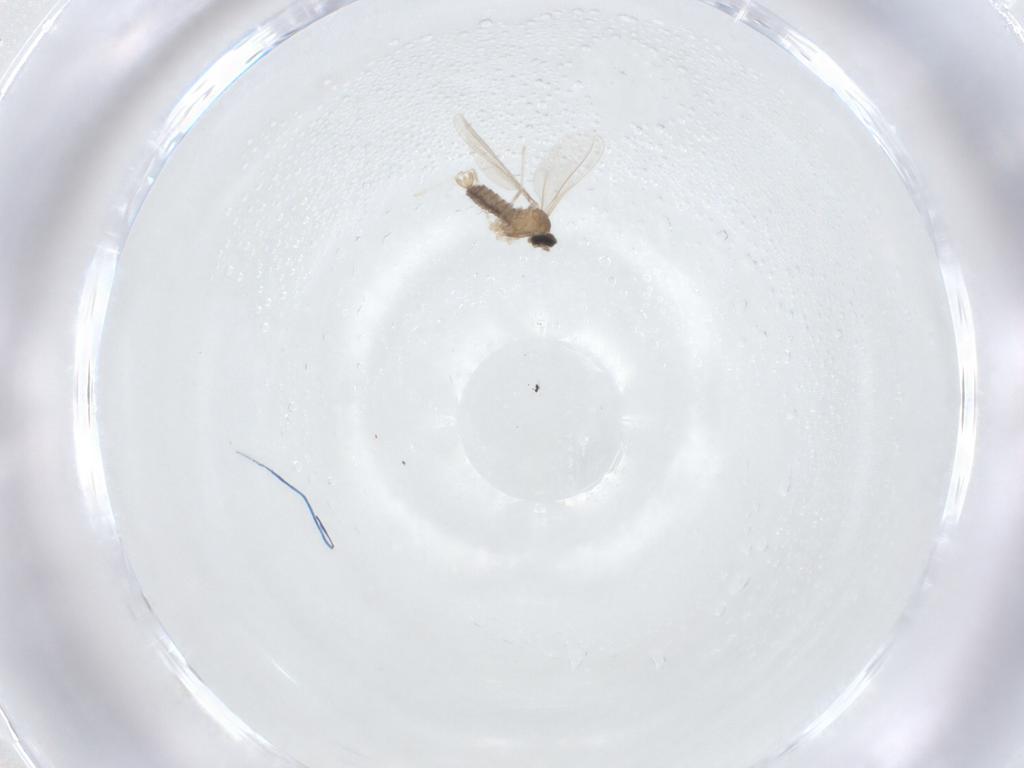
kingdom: Animalia
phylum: Arthropoda
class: Insecta
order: Diptera
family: Cecidomyiidae
